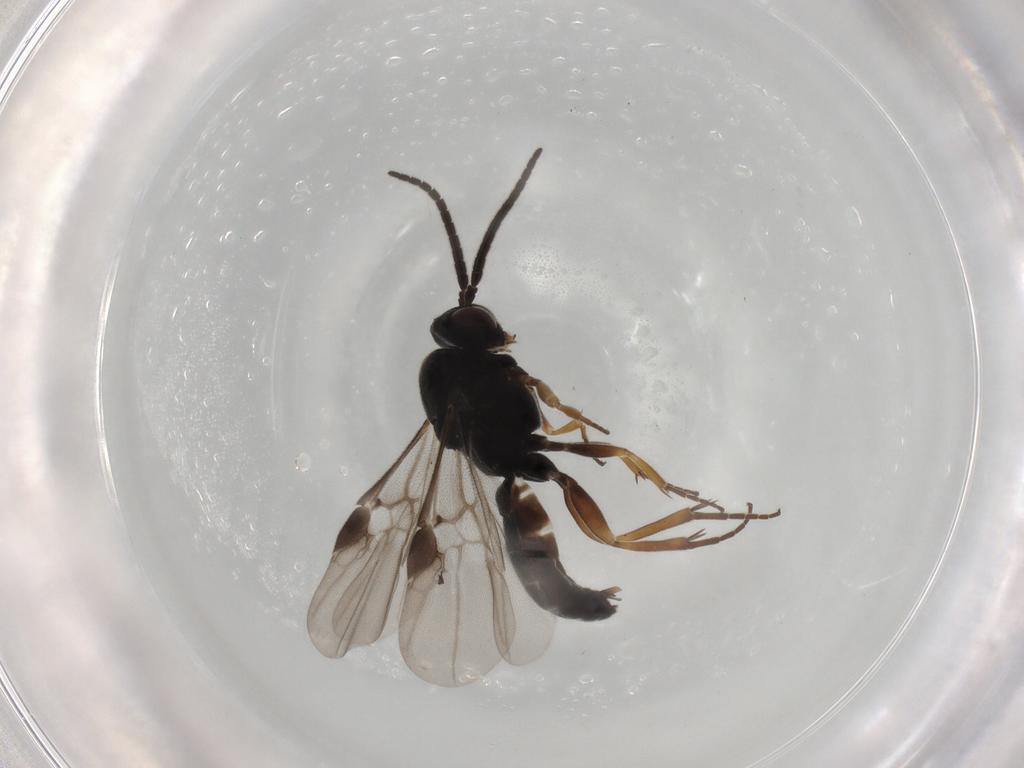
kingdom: Animalia
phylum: Arthropoda
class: Insecta
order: Hymenoptera
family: Braconidae
